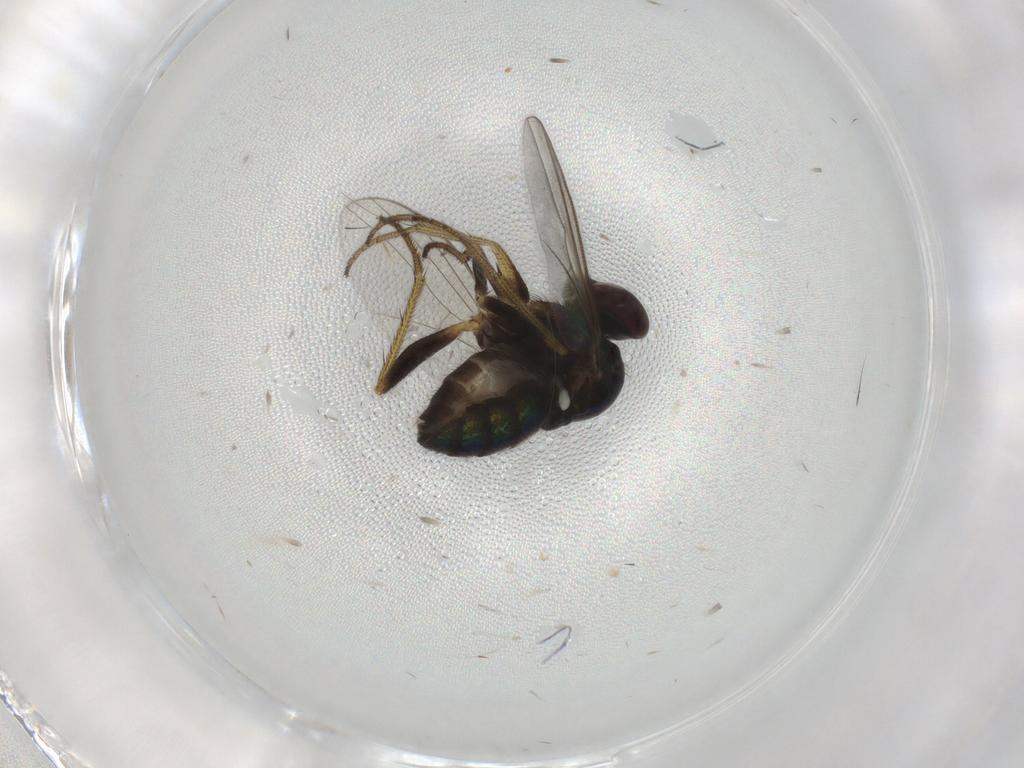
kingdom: Animalia
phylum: Arthropoda
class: Insecta
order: Diptera
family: Dolichopodidae
